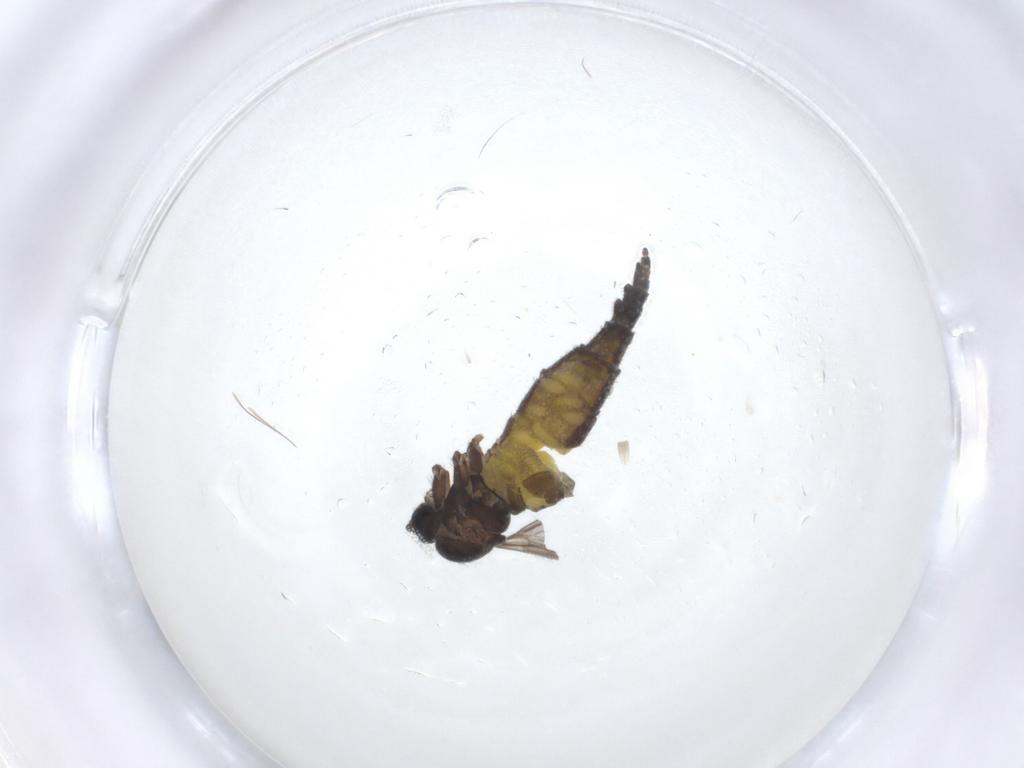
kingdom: Animalia
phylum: Arthropoda
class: Insecta
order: Diptera
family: Sciaridae
